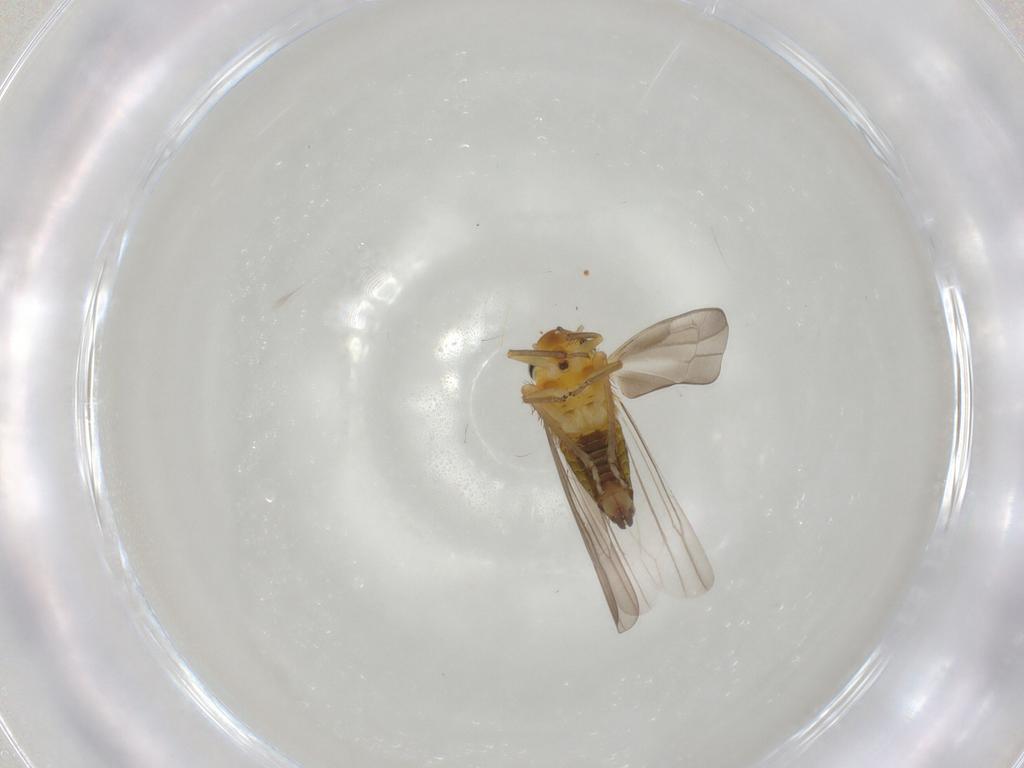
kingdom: Animalia
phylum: Arthropoda
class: Insecta
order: Hemiptera
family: Cicadellidae
